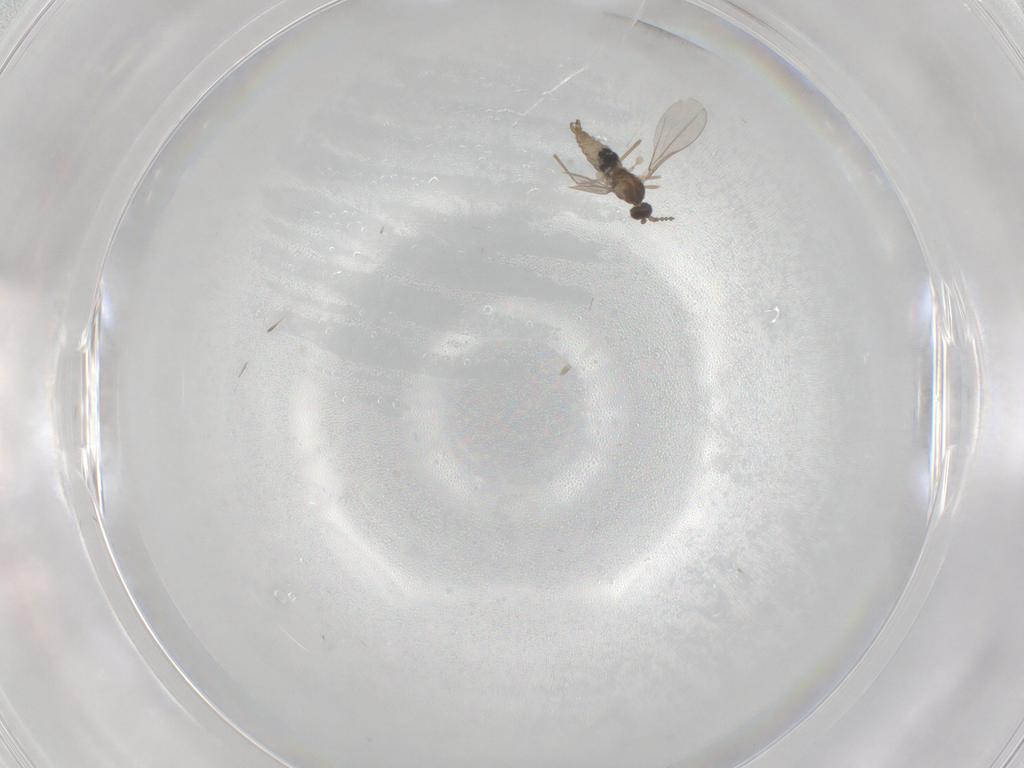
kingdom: Animalia
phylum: Arthropoda
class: Insecta
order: Diptera
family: Cecidomyiidae
